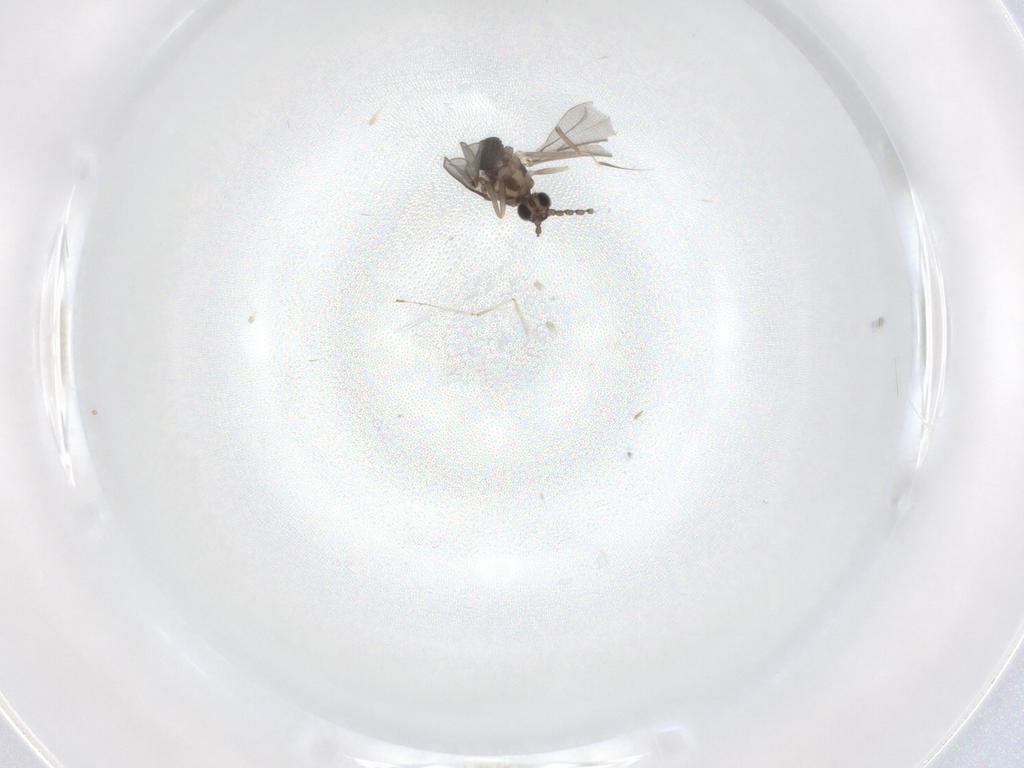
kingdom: Animalia
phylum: Arthropoda
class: Insecta
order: Diptera
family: Cecidomyiidae
